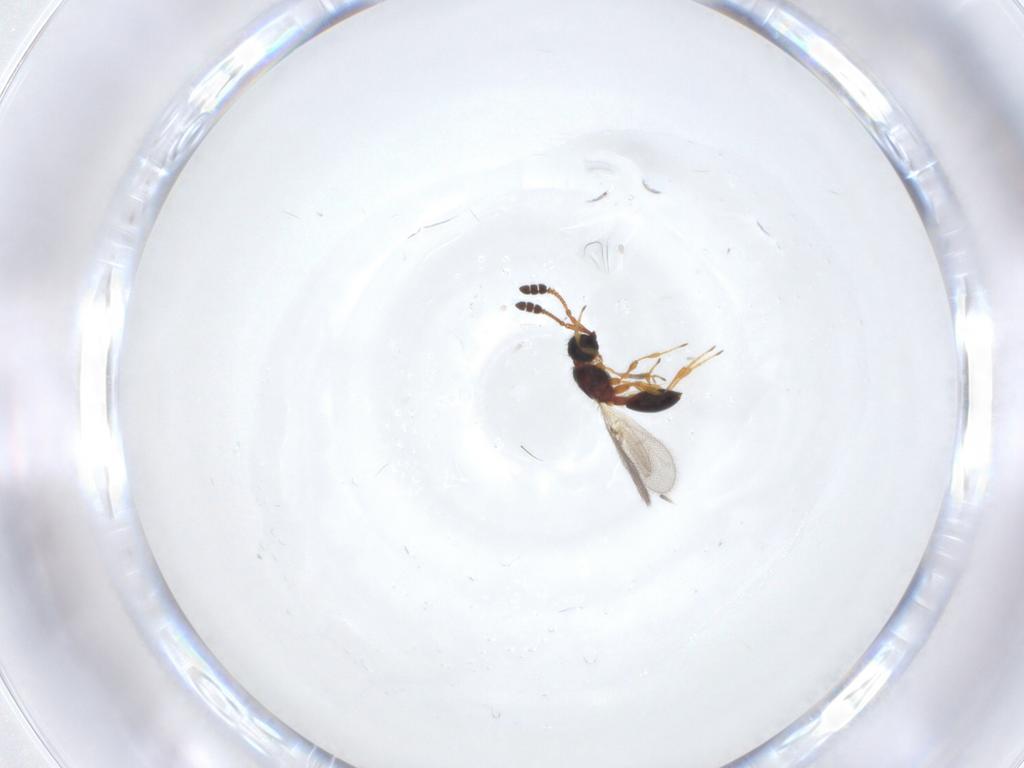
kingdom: Animalia
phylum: Arthropoda
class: Insecta
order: Hymenoptera
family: Diapriidae
